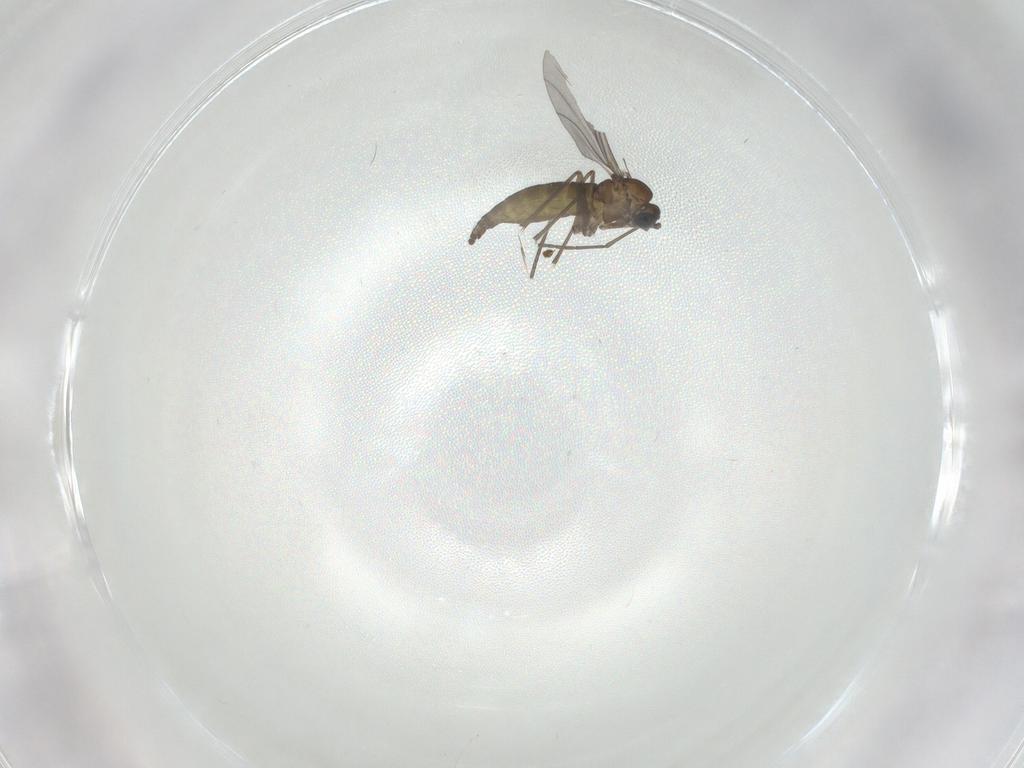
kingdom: Animalia
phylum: Arthropoda
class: Insecta
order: Diptera
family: Sciaridae
